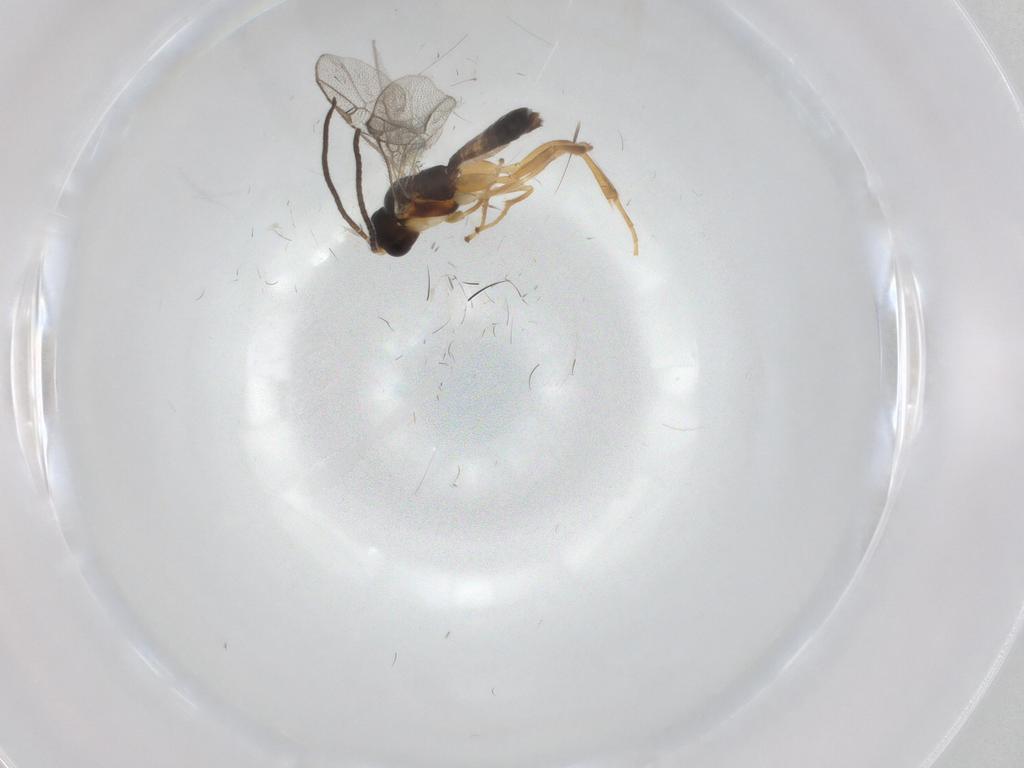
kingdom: Animalia
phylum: Arthropoda
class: Insecta
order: Hymenoptera
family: Ichneumonidae
